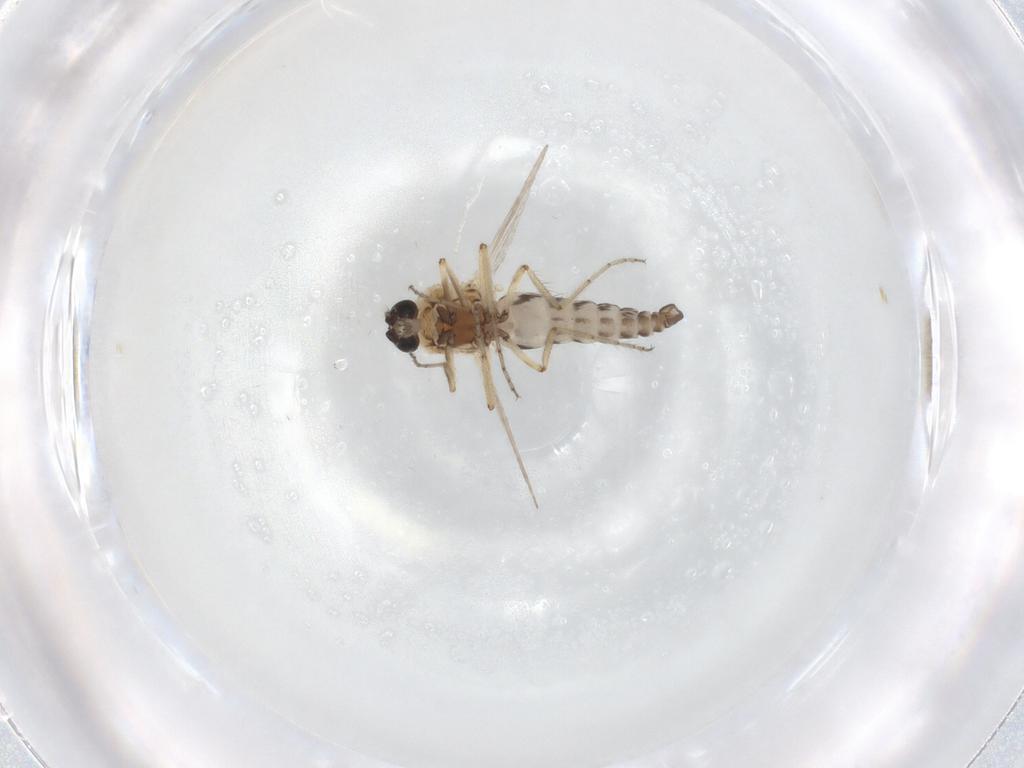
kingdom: Animalia
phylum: Arthropoda
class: Insecta
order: Diptera
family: Ceratopogonidae
